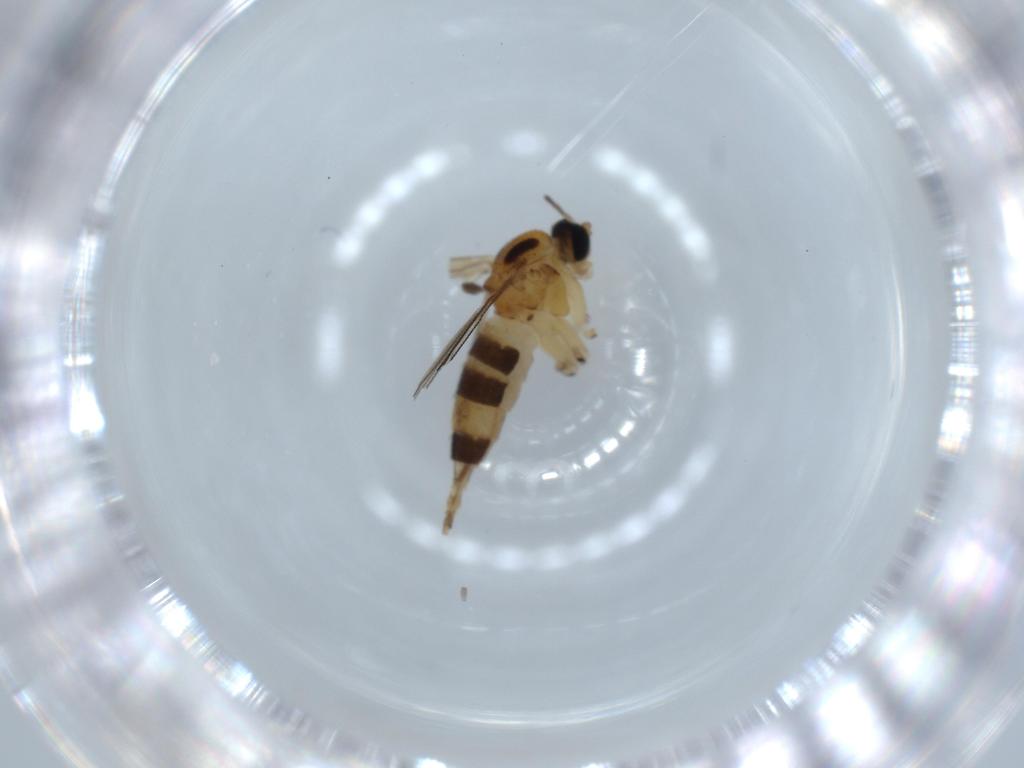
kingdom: Animalia
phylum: Arthropoda
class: Insecta
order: Diptera
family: Sciaridae
